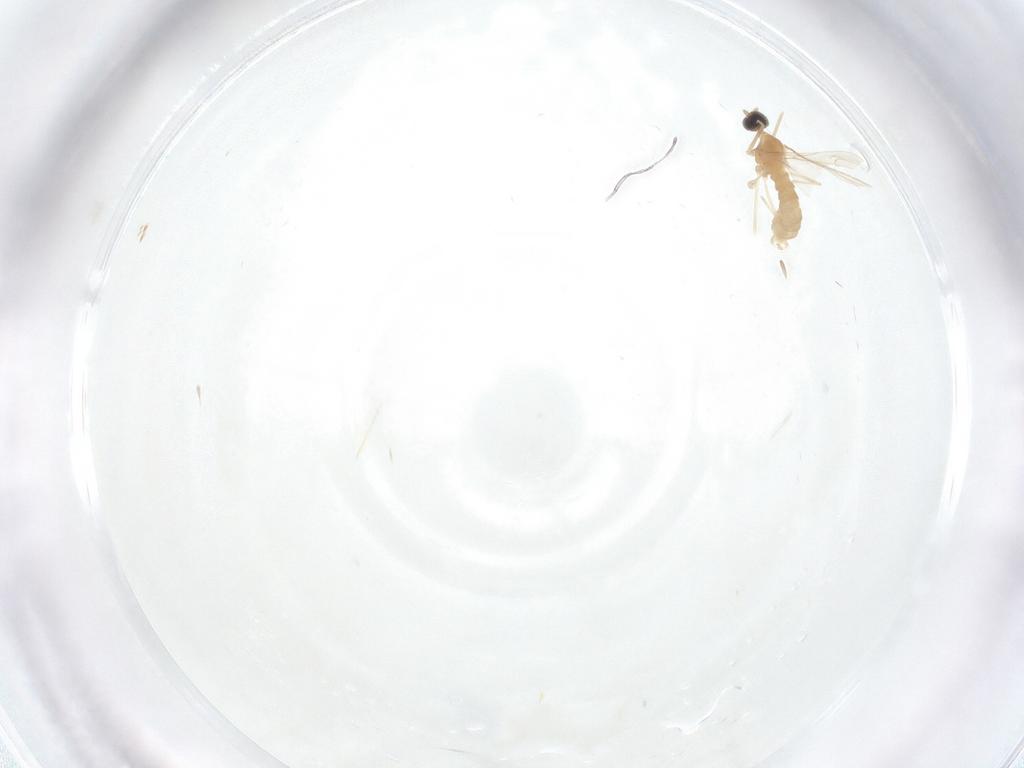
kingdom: Animalia
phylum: Arthropoda
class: Insecta
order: Diptera
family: Cecidomyiidae
